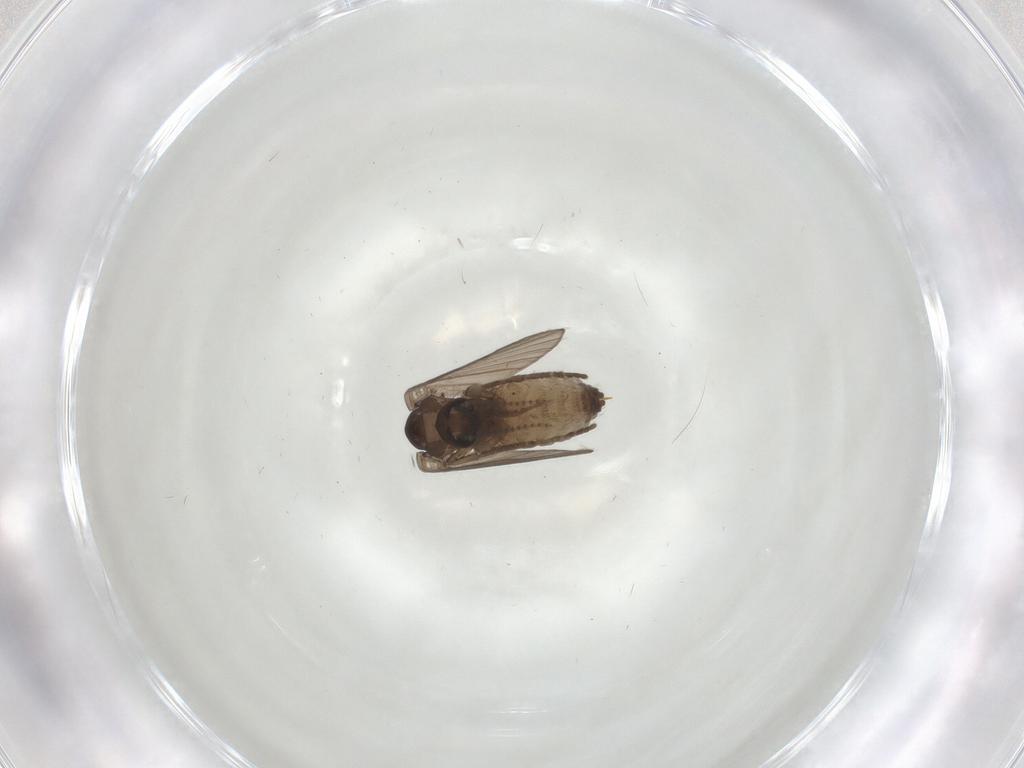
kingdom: Animalia
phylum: Arthropoda
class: Insecta
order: Diptera
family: Psychodidae
